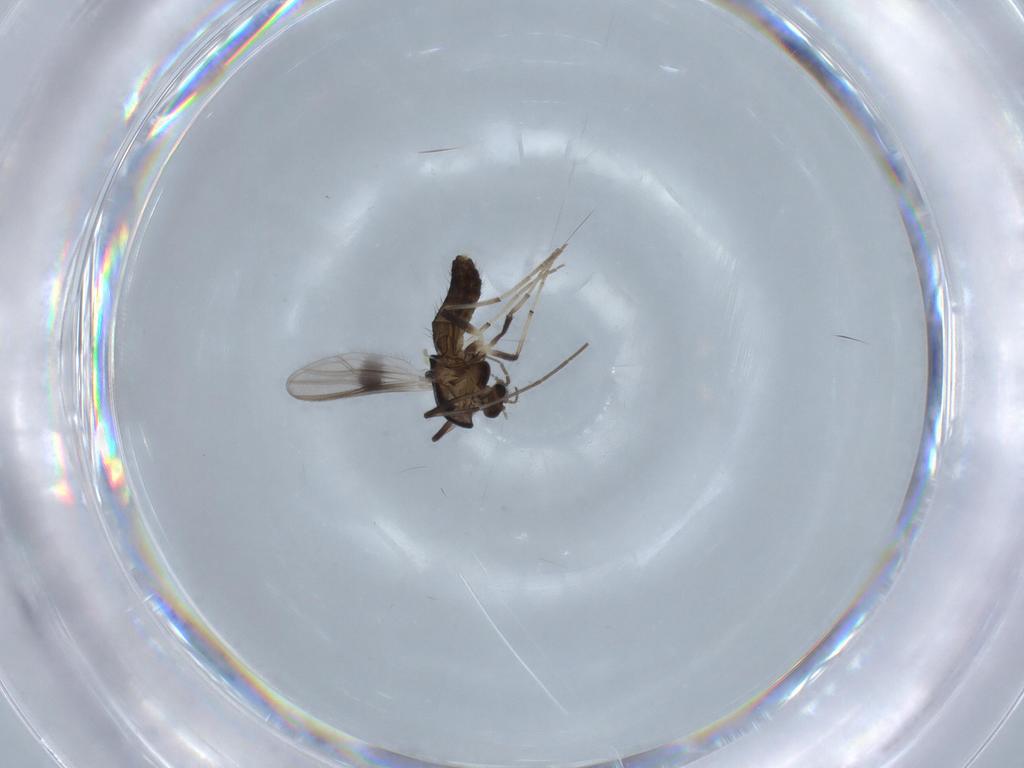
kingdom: Animalia
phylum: Arthropoda
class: Insecta
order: Diptera
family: Chironomidae
